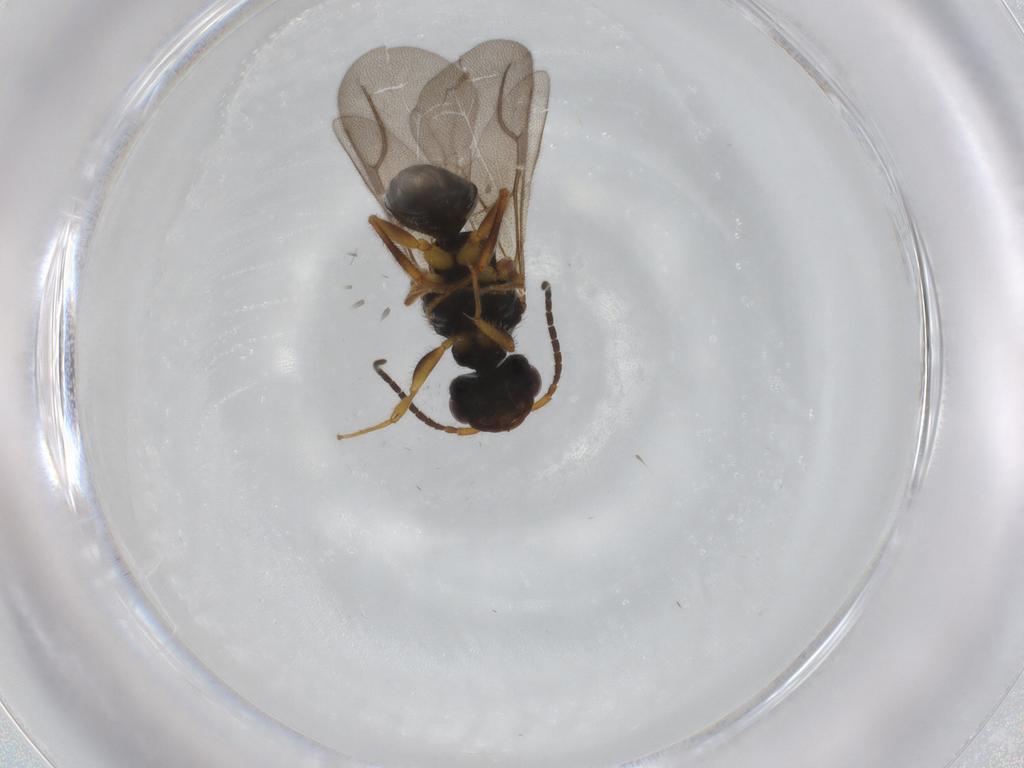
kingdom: Animalia
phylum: Arthropoda
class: Insecta
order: Hymenoptera
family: Bethylidae
